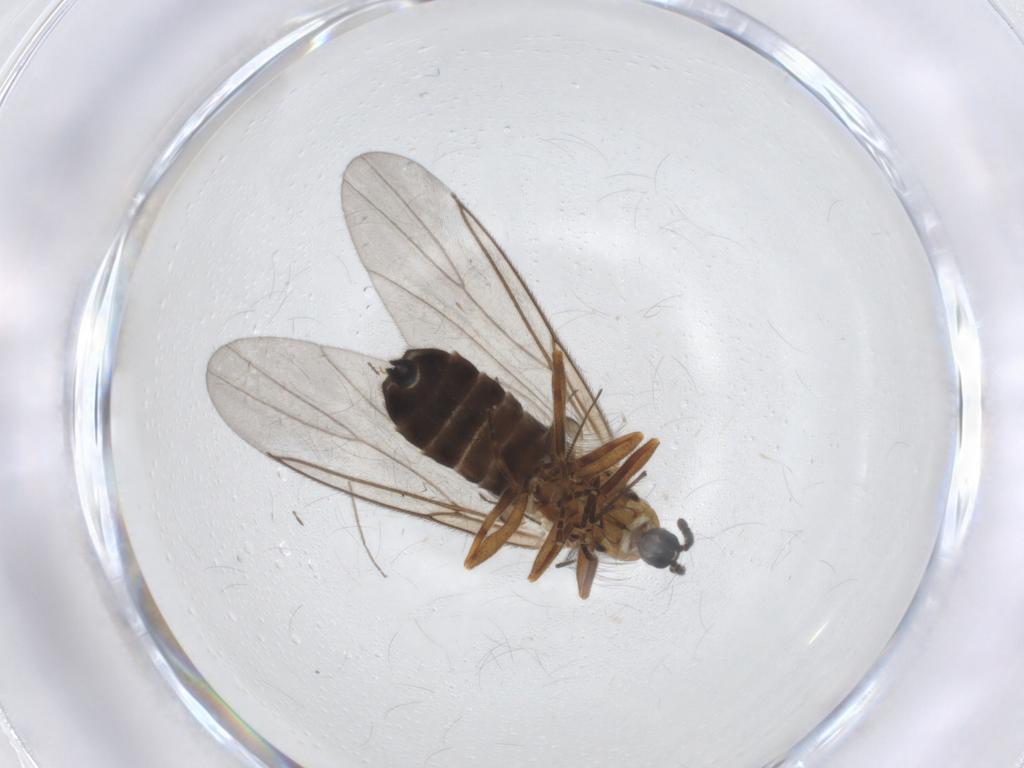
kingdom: Animalia
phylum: Arthropoda
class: Insecta
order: Diptera
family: Scatopsidae
